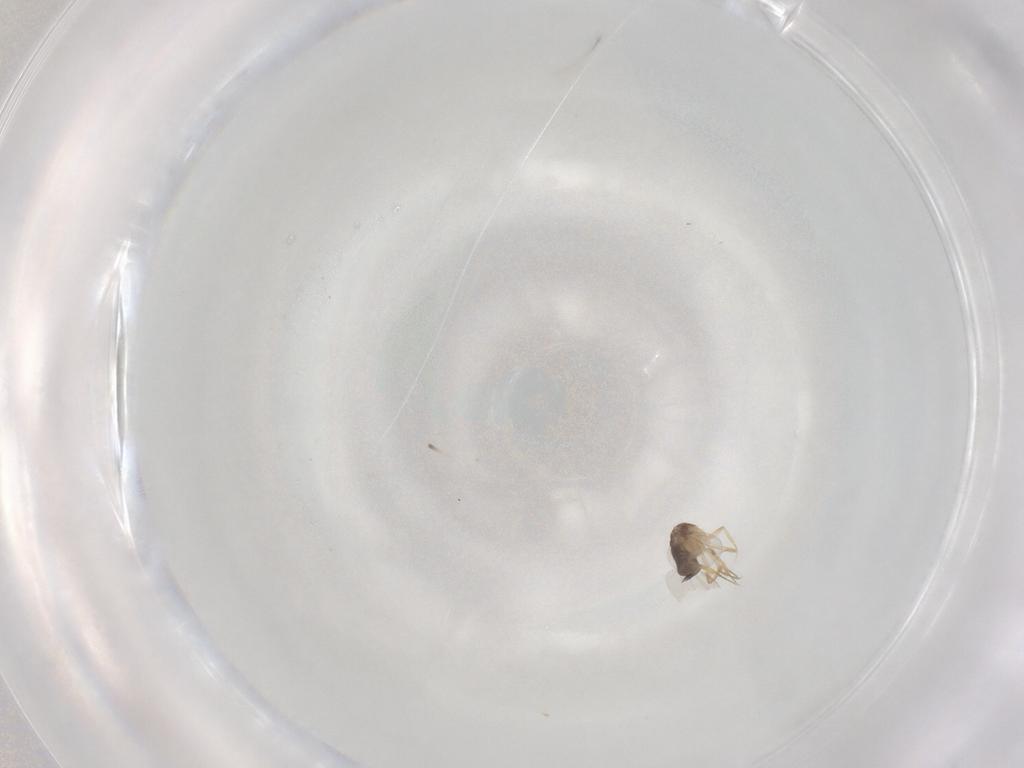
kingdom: Animalia
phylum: Arthropoda
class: Insecta
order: Diptera
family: Phoridae
